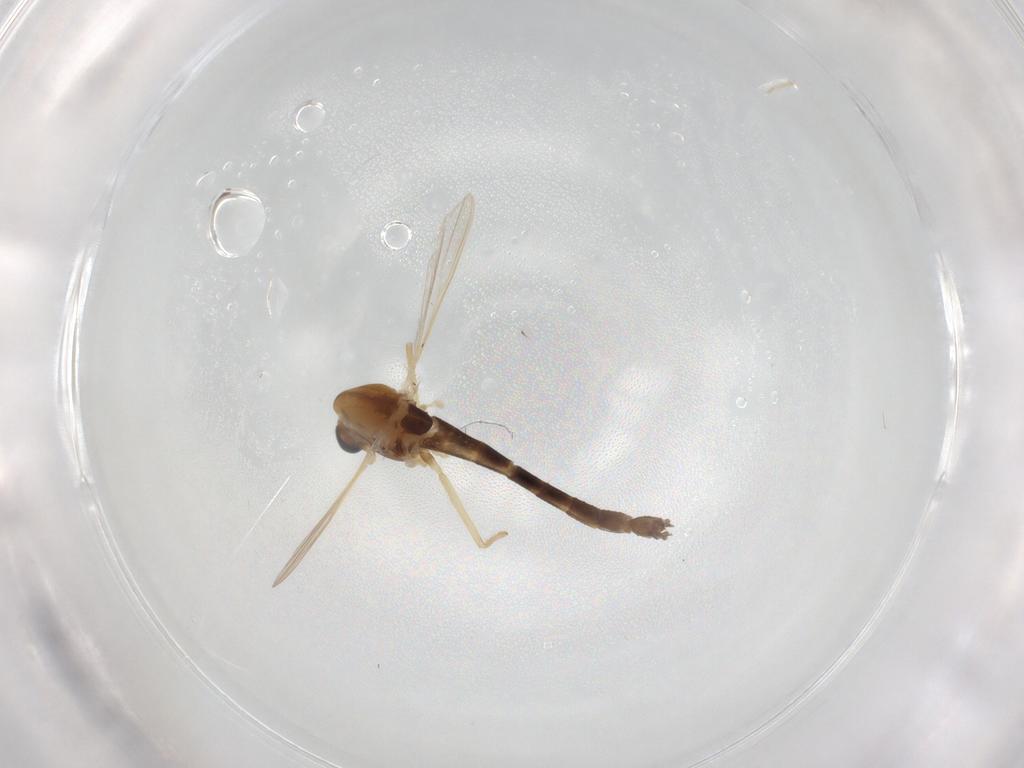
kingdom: Animalia
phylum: Arthropoda
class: Insecta
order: Diptera
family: Chironomidae
